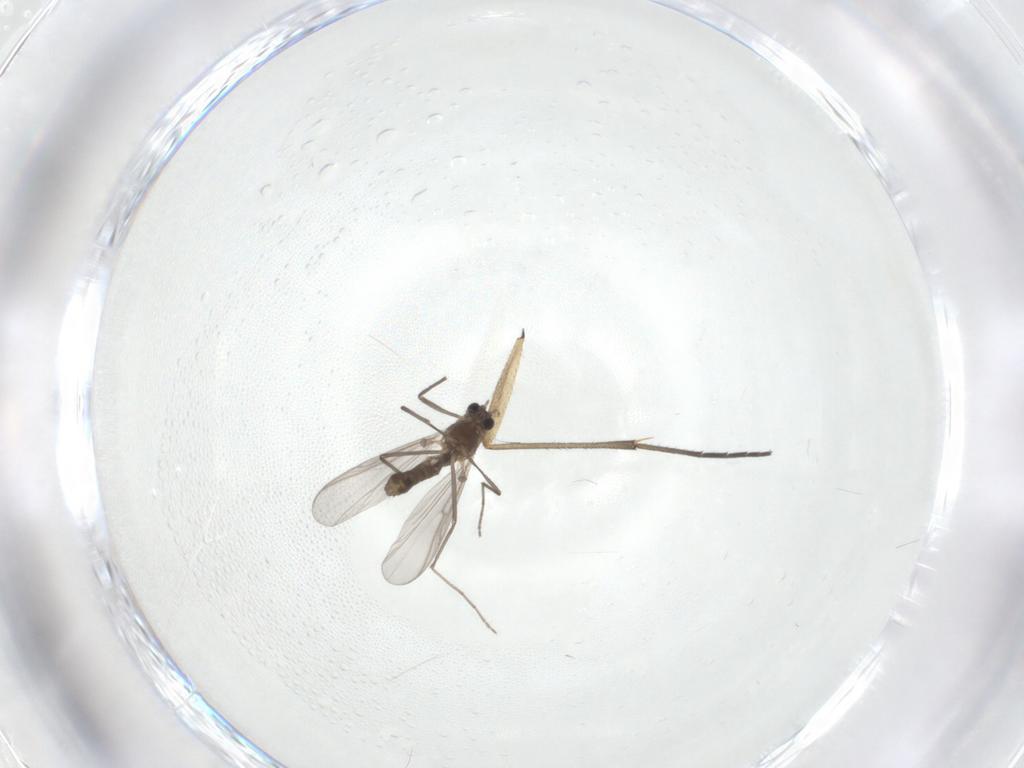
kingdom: Animalia
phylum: Arthropoda
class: Insecta
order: Diptera
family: Chironomidae
